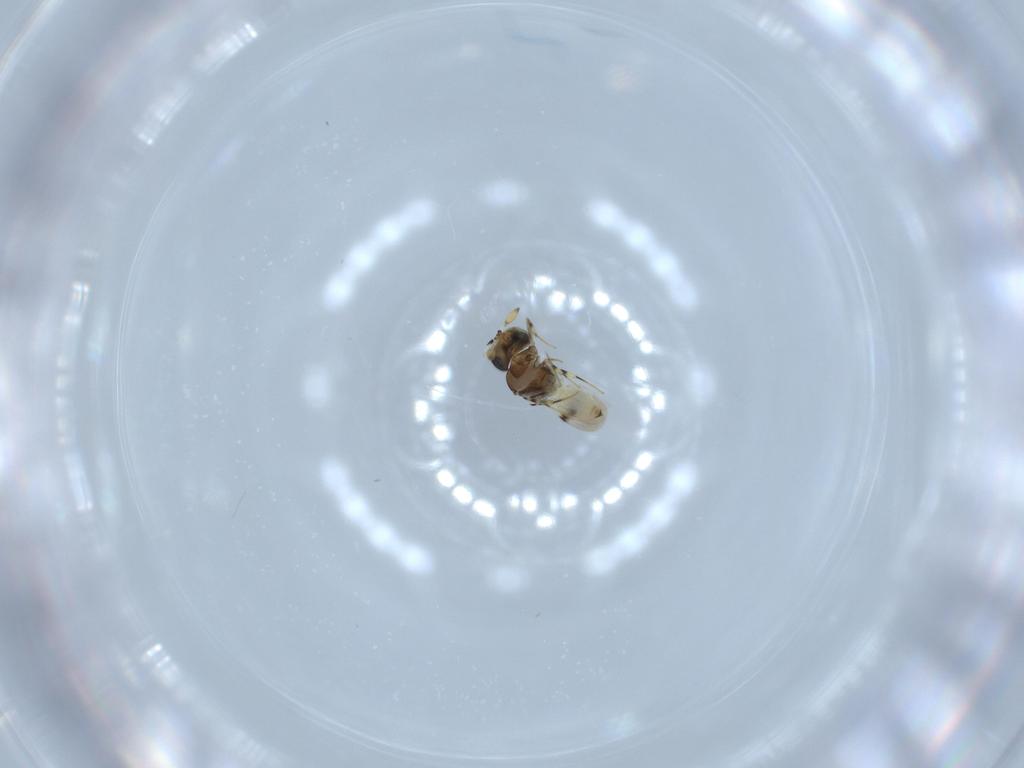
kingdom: Animalia
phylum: Arthropoda
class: Insecta
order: Hymenoptera
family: Scelionidae
